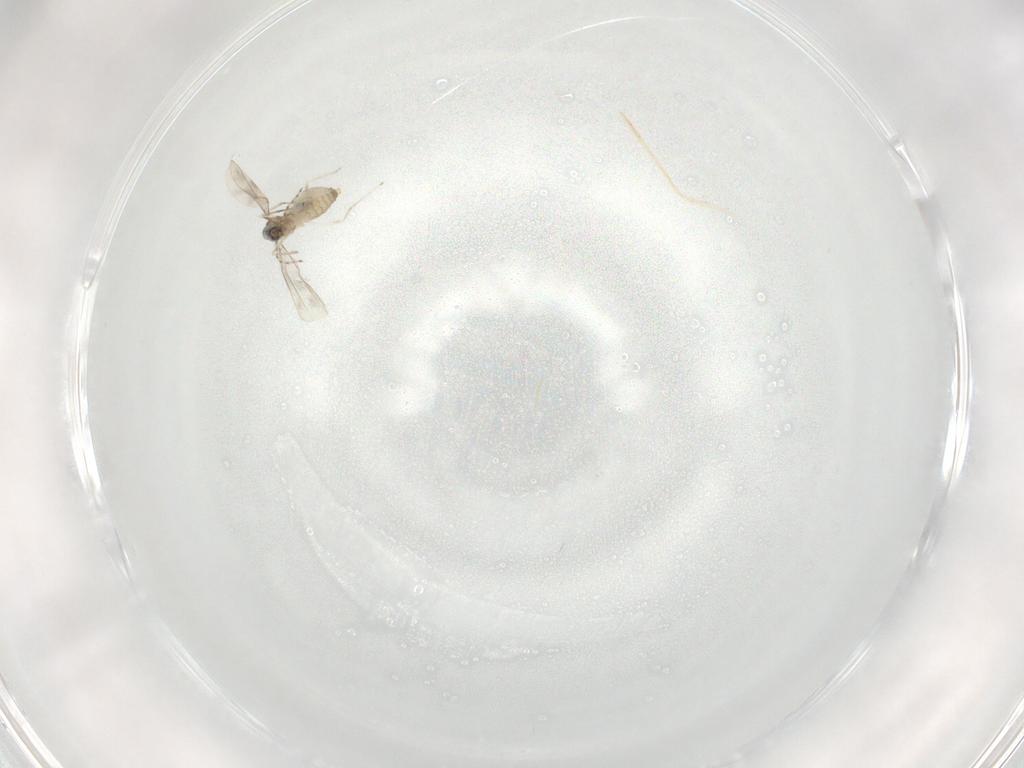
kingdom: Animalia
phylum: Arthropoda
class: Insecta
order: Diptera
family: Cecidomyiidae
